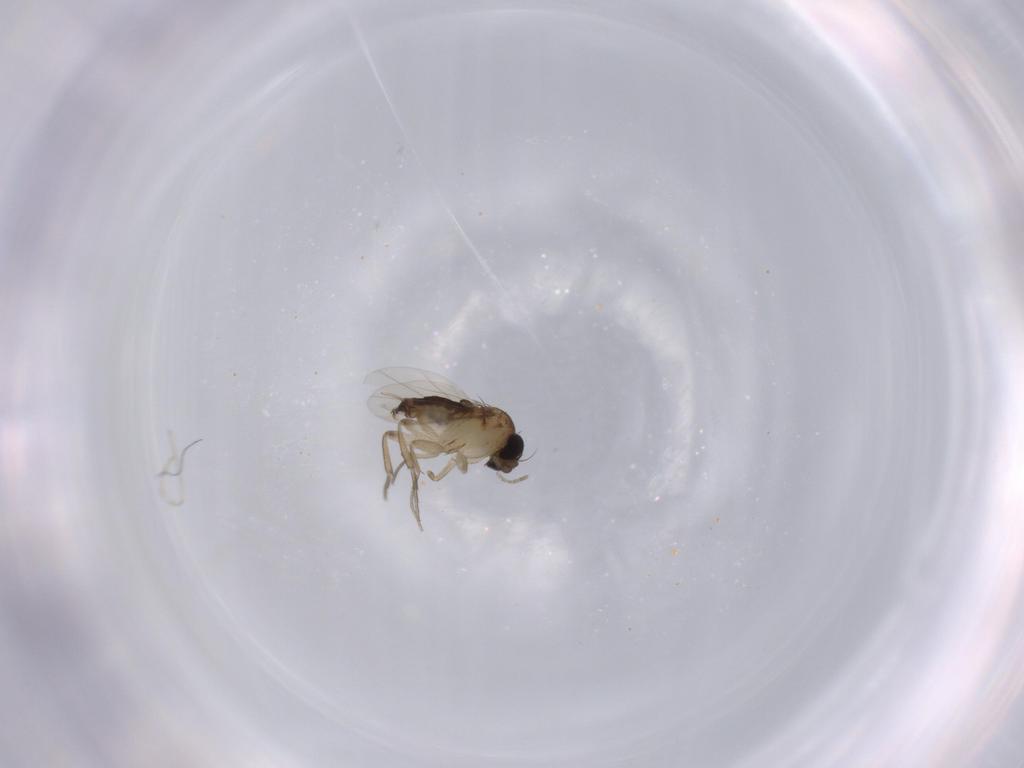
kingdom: Animalia
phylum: Arthropoda
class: Insecta
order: Diptera
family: Phoridae
